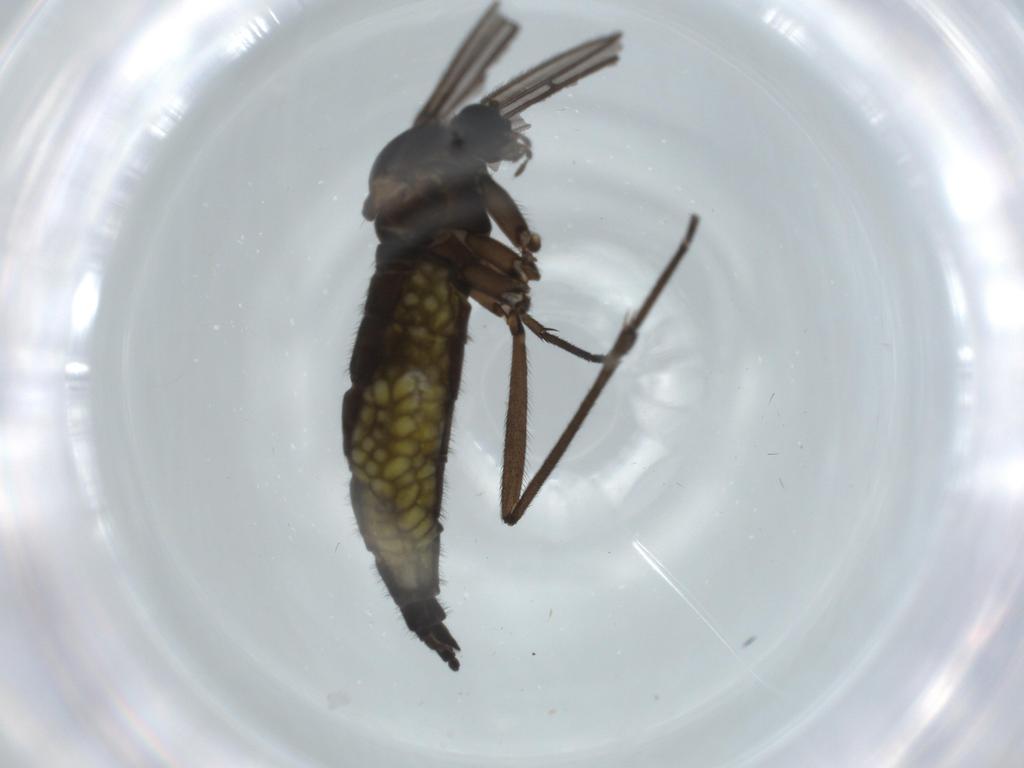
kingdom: Animalia
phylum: Arthropoda
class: Insecta
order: Diptera
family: Sciaridae
